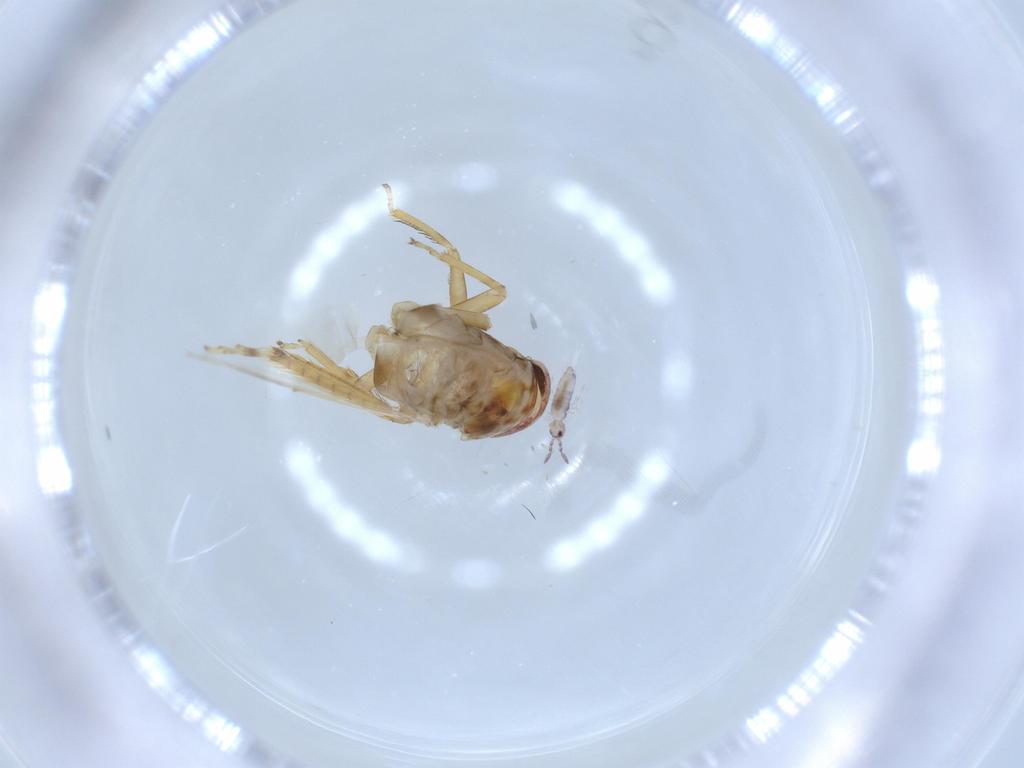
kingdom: Animalia
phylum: Arthropoda
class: Insecta
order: Hemiptera
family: Cicadellidae
